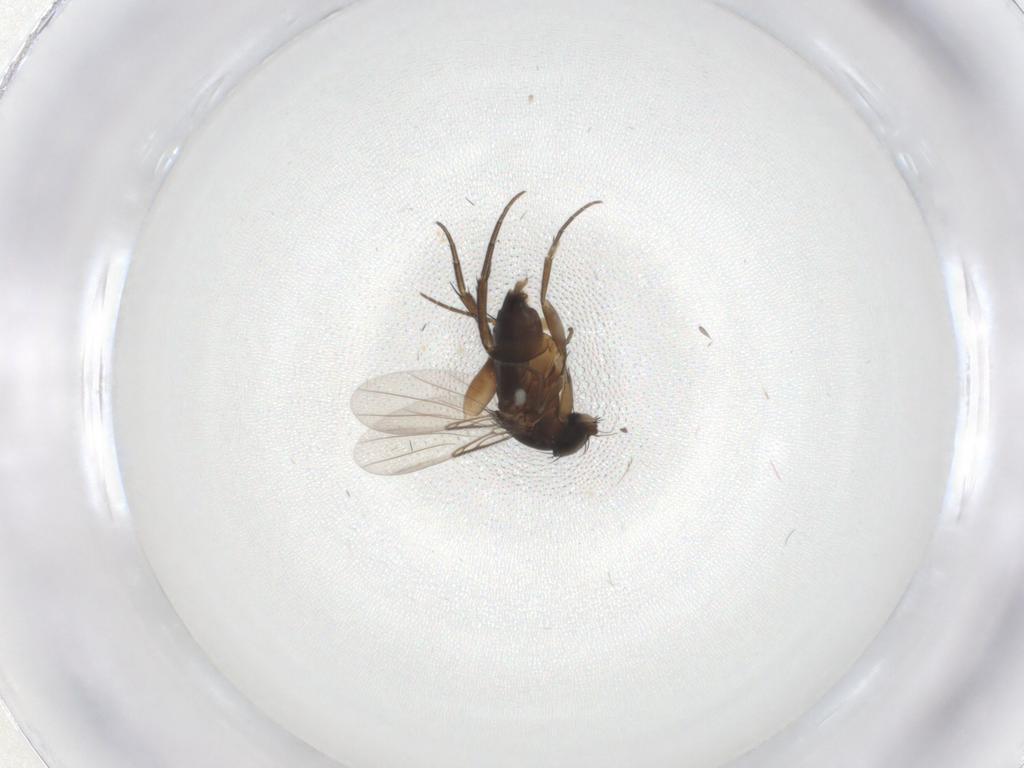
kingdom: Animalia
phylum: Arthropoda
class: Insecta
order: Diptera
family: Phoridae
